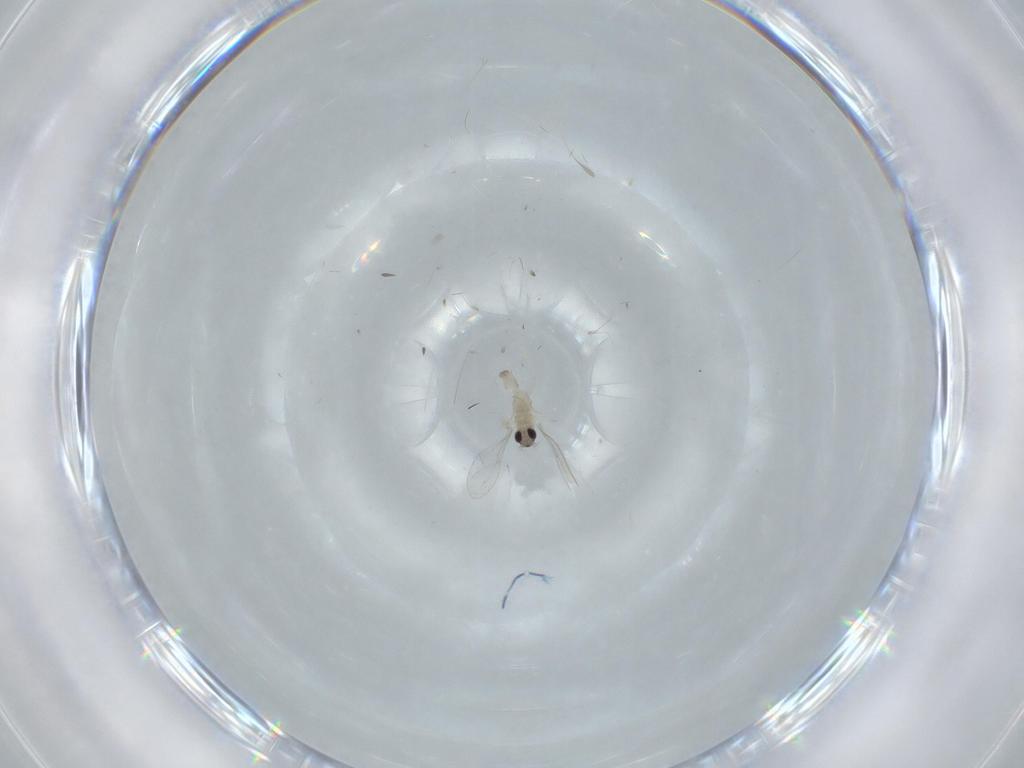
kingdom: Animalia
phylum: Arthropoda
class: Insecta
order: Diptera
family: Cecidomyiidae
